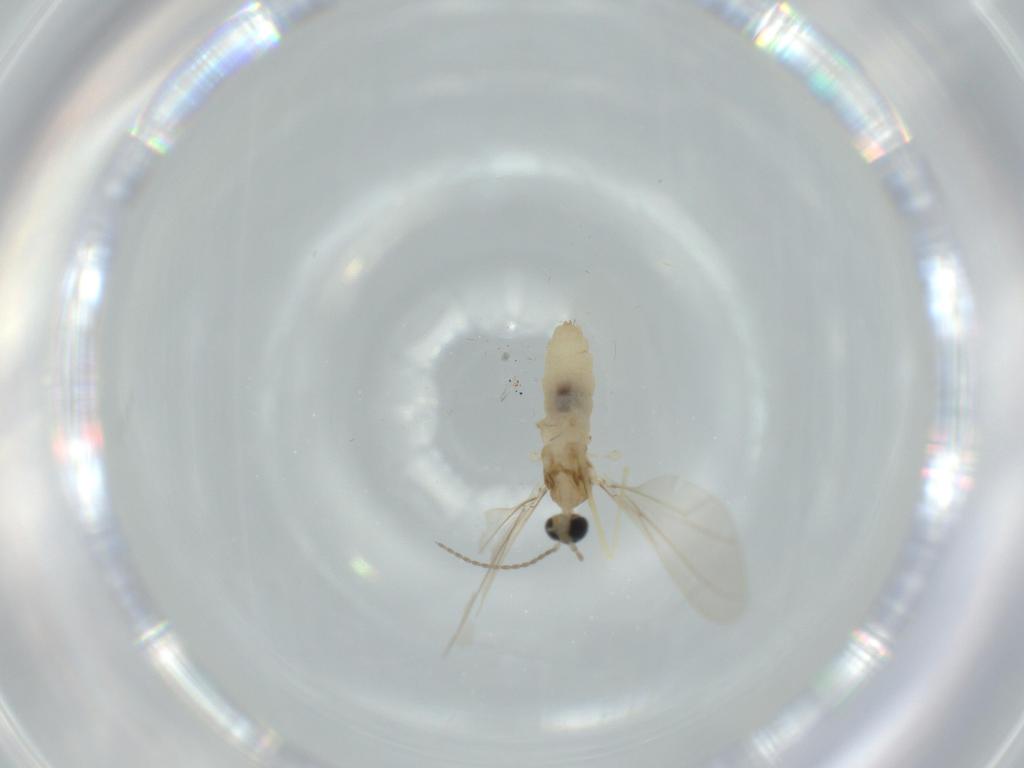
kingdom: Animalia
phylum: Arthropoda
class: Insecta
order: Diptera
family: Cecidomyiidae
